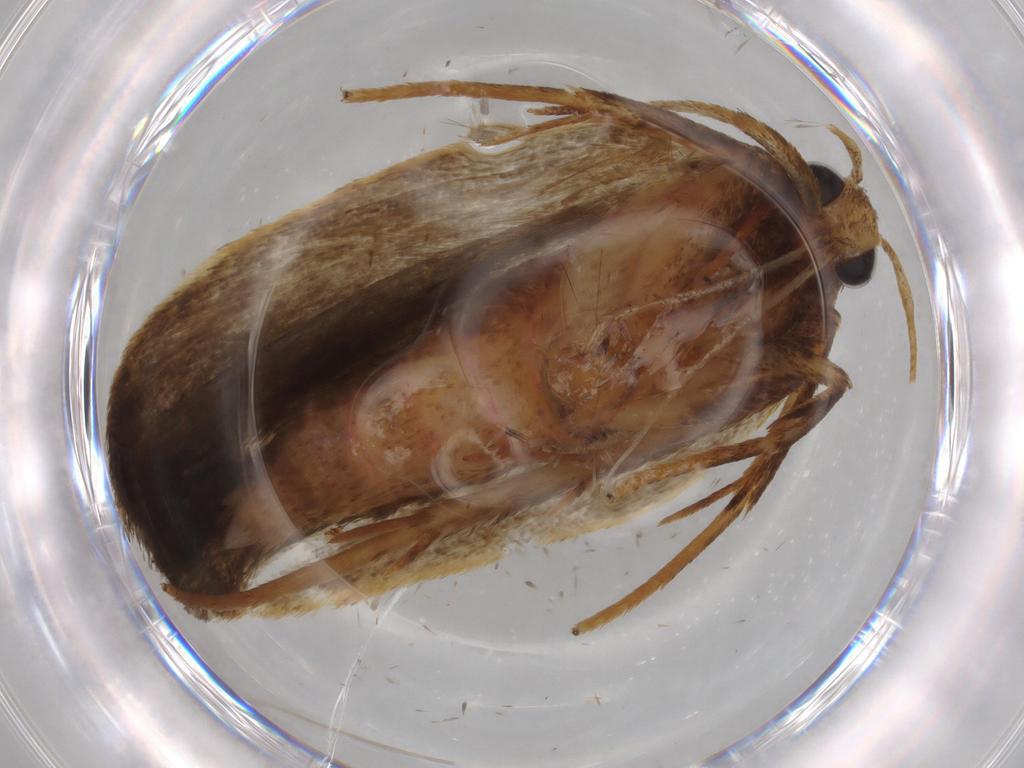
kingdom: Animalia
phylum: Arthropoda
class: Insecta
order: Lepidoptera
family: Autostichidae
